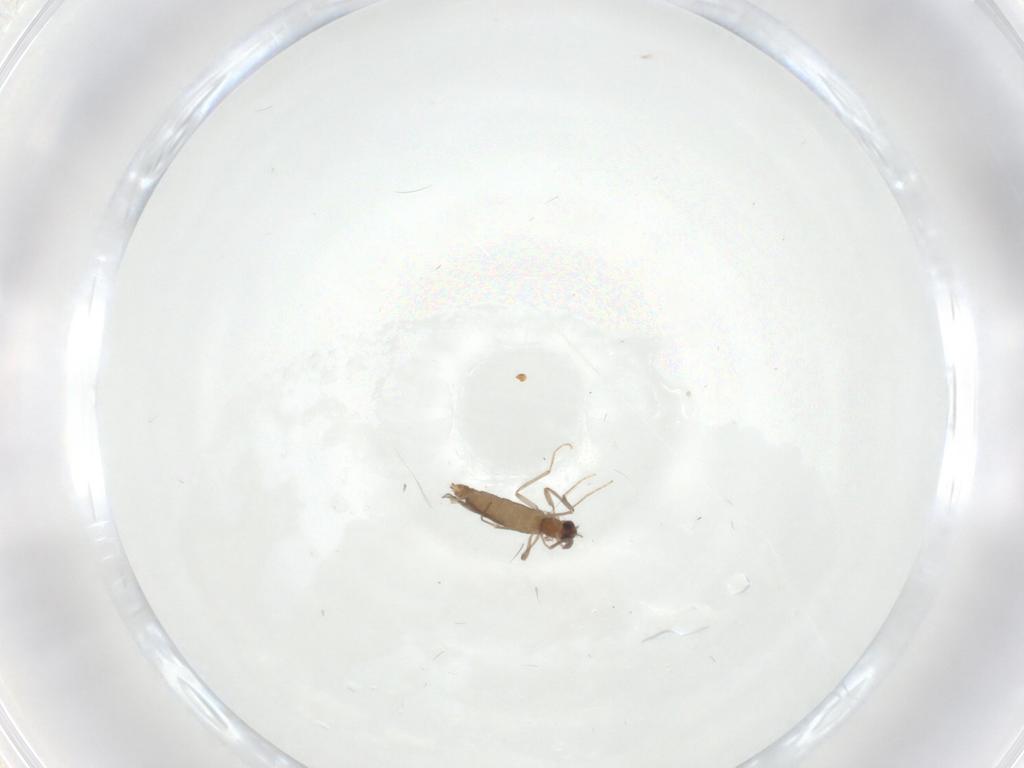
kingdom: Animalia
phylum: Arthropoda
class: Insecta
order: Diptera
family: Chironomidae
